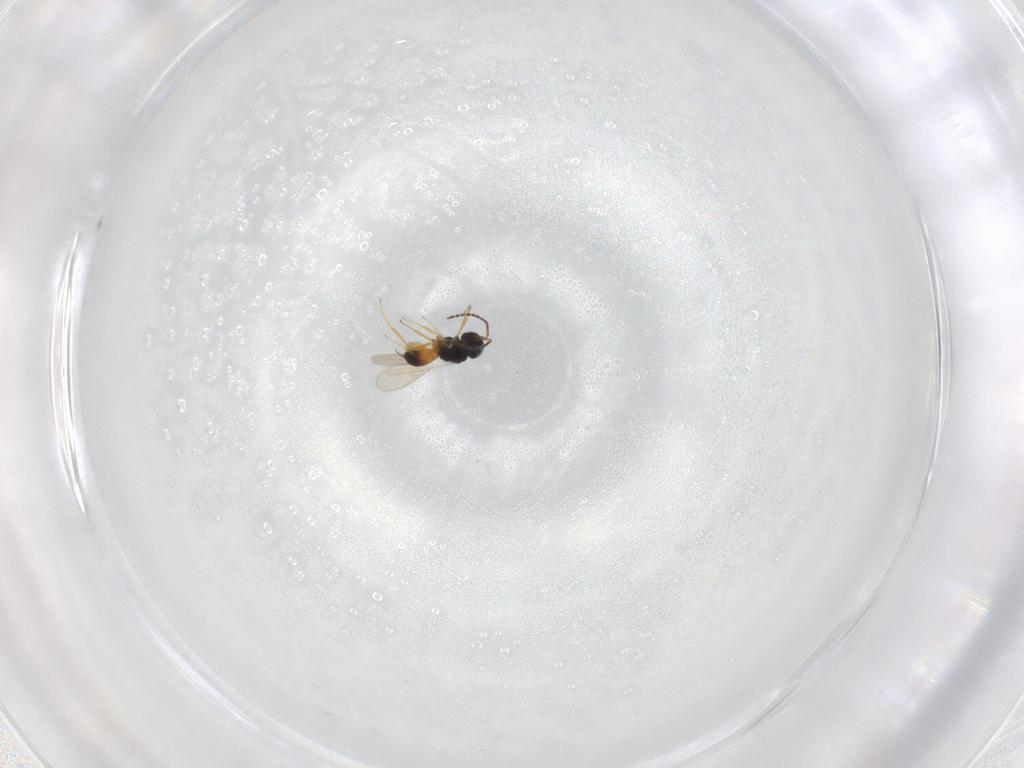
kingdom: Animalia
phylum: Arthropoda
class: Insecta
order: Hymenoptera
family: Scelionidae
